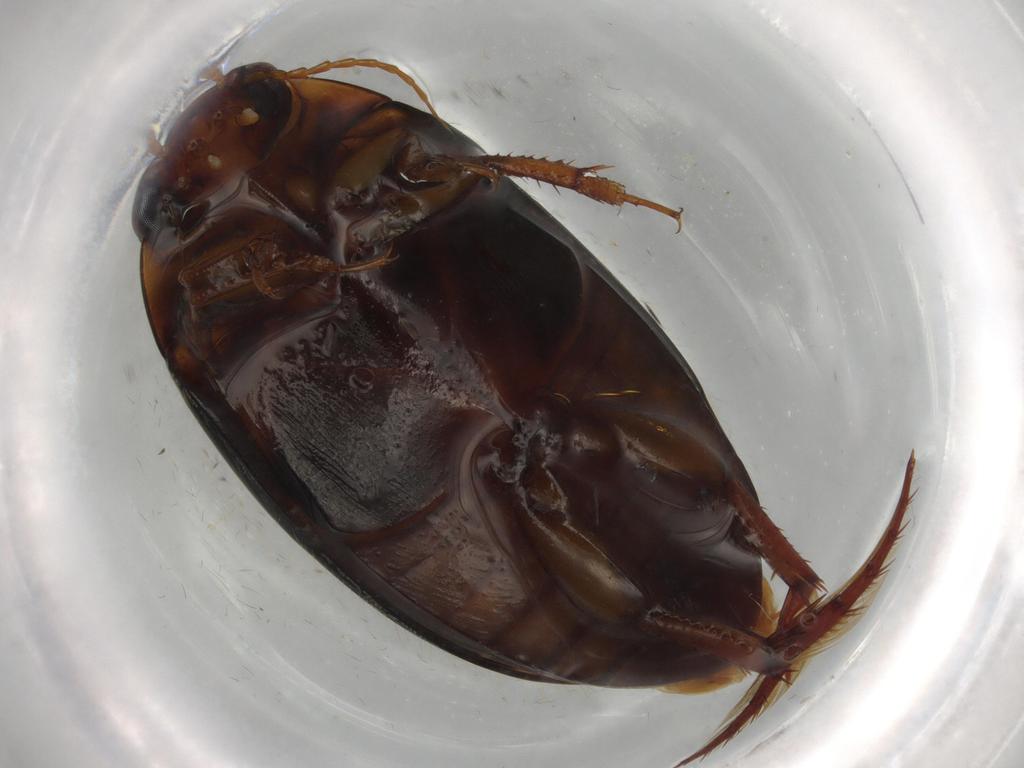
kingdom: Animalia
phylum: Arthropoda
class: Insecta
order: Coleoptera
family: Dytiscidae
